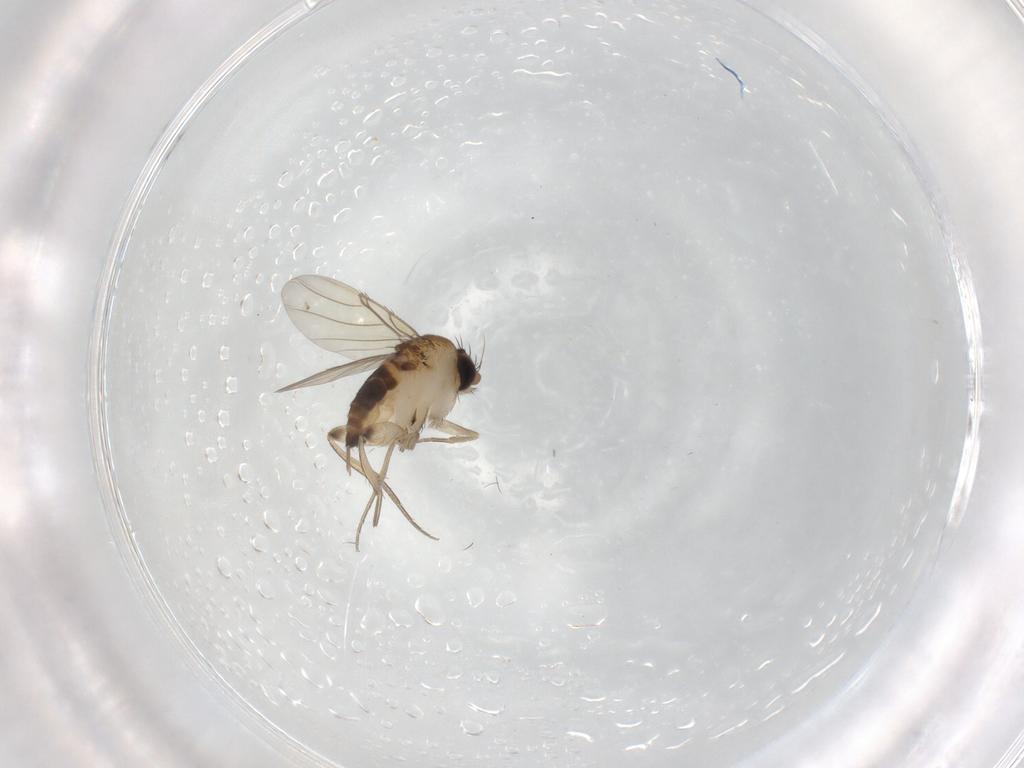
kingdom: Animalia
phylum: Arthropoda
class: Insecta
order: Diptera
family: Phoridae
